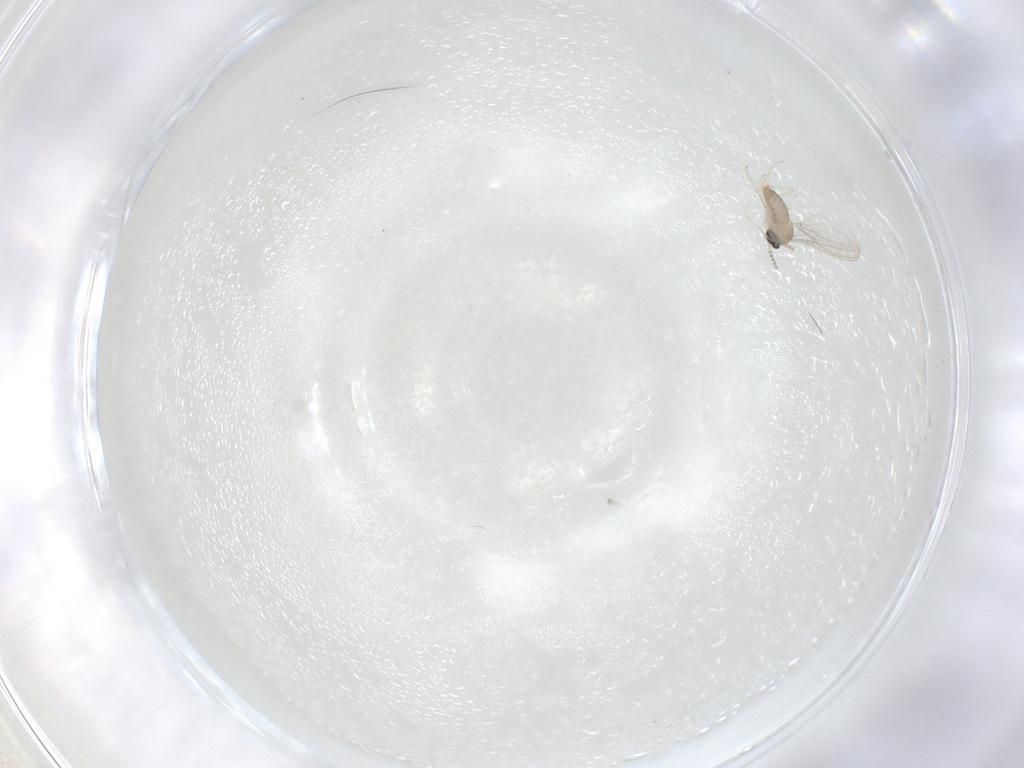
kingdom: Animalia
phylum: Arthropoda
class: Insecta
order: Diptera
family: Cecidomyiidae
